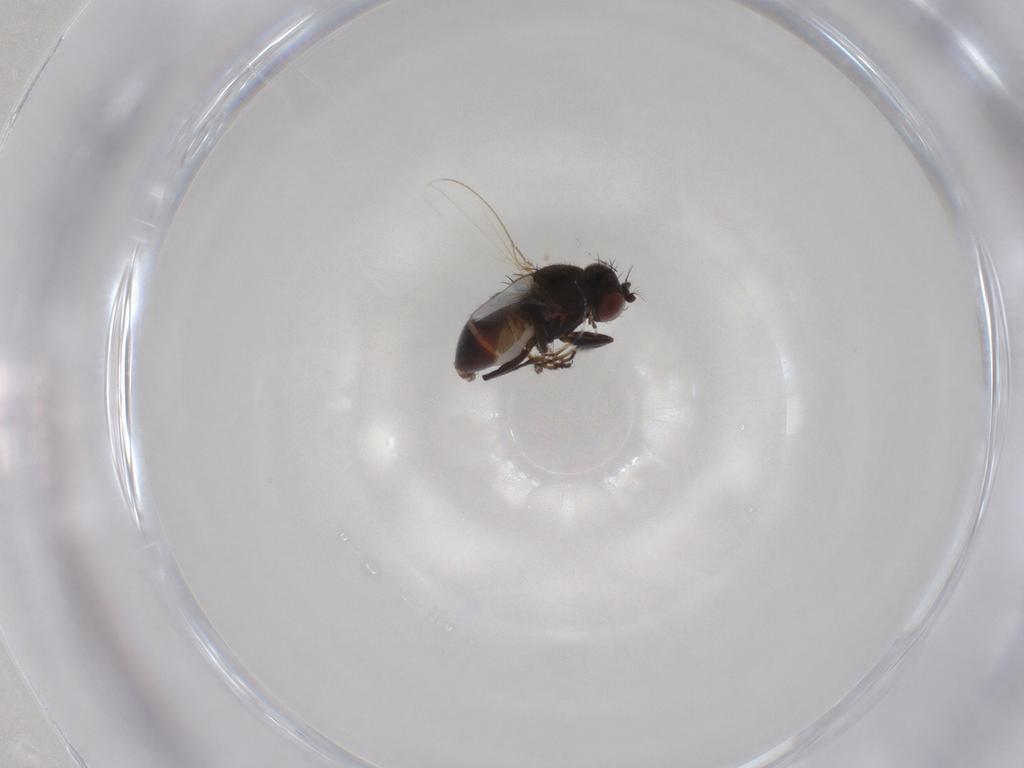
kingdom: Animalia
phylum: Arthropoda
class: Insecta
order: Diptera
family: Ephydridae
